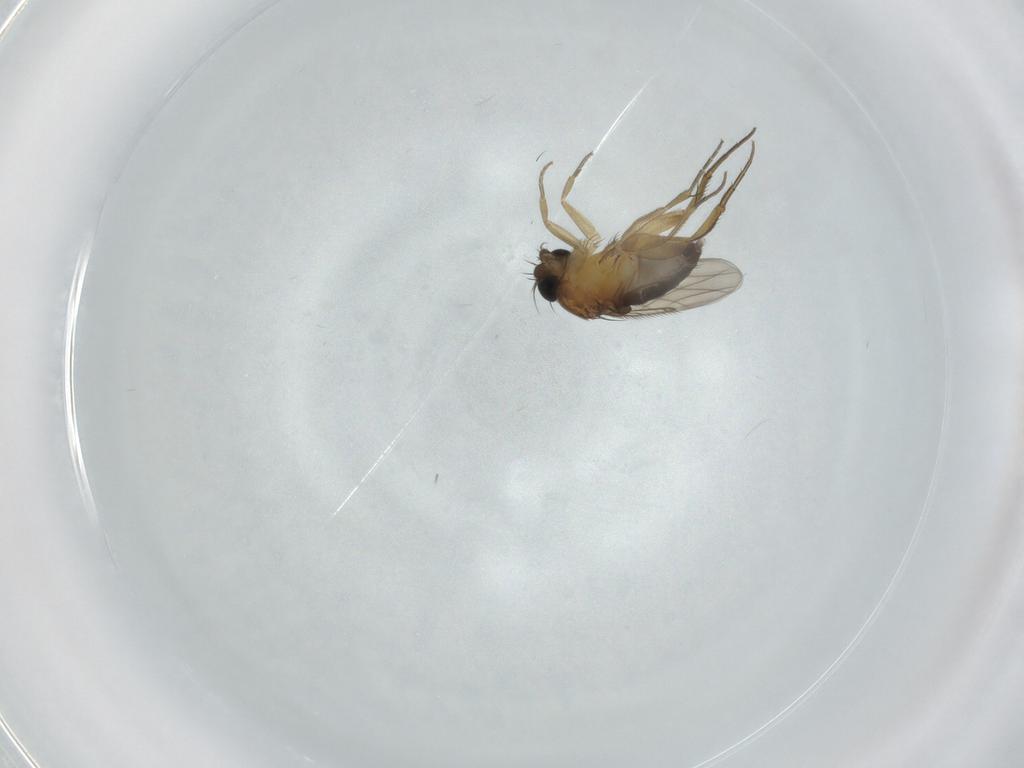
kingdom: Animalia
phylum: Arthropoda
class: Insecta
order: Diptera
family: Phoridae
